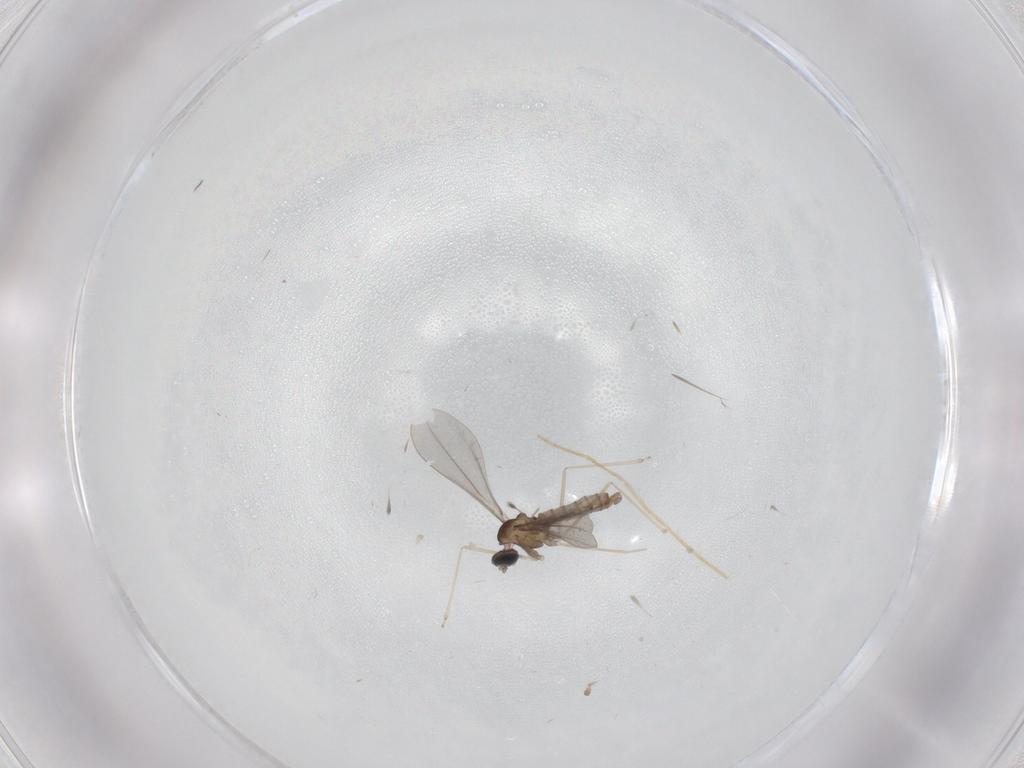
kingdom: Animalia
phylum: Arthropoda
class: Insecta
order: Diptera
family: Chironomidae
